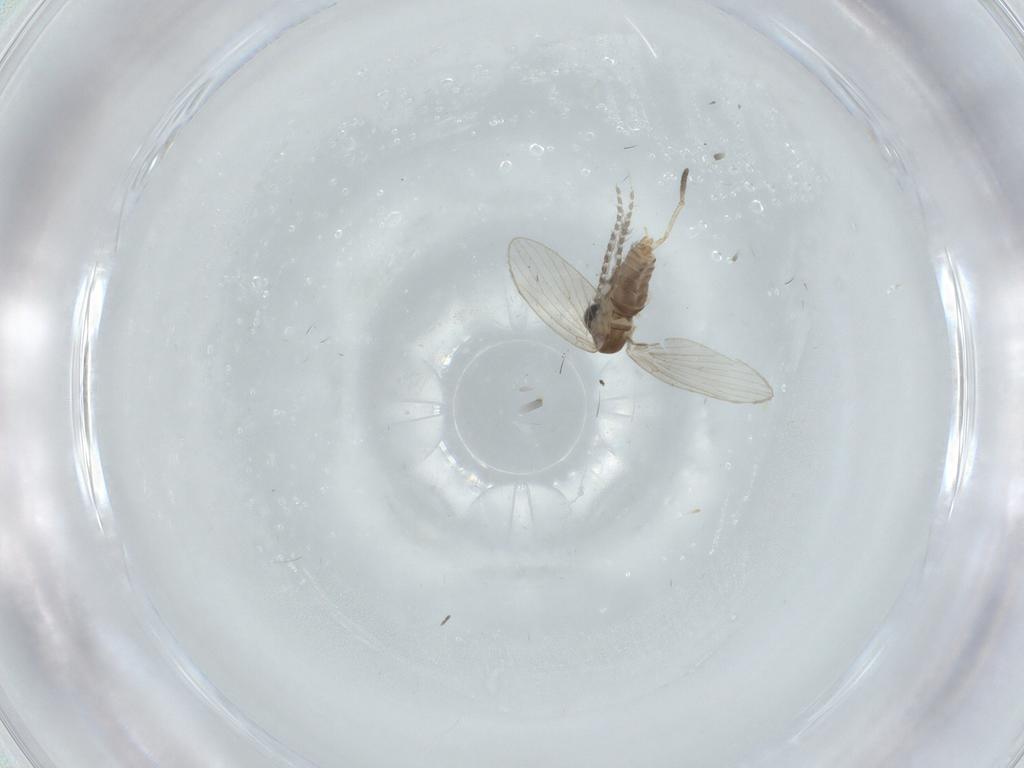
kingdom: Animalia
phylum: Arthropoda
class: Insecta
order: Diptera
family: Psychodidae
